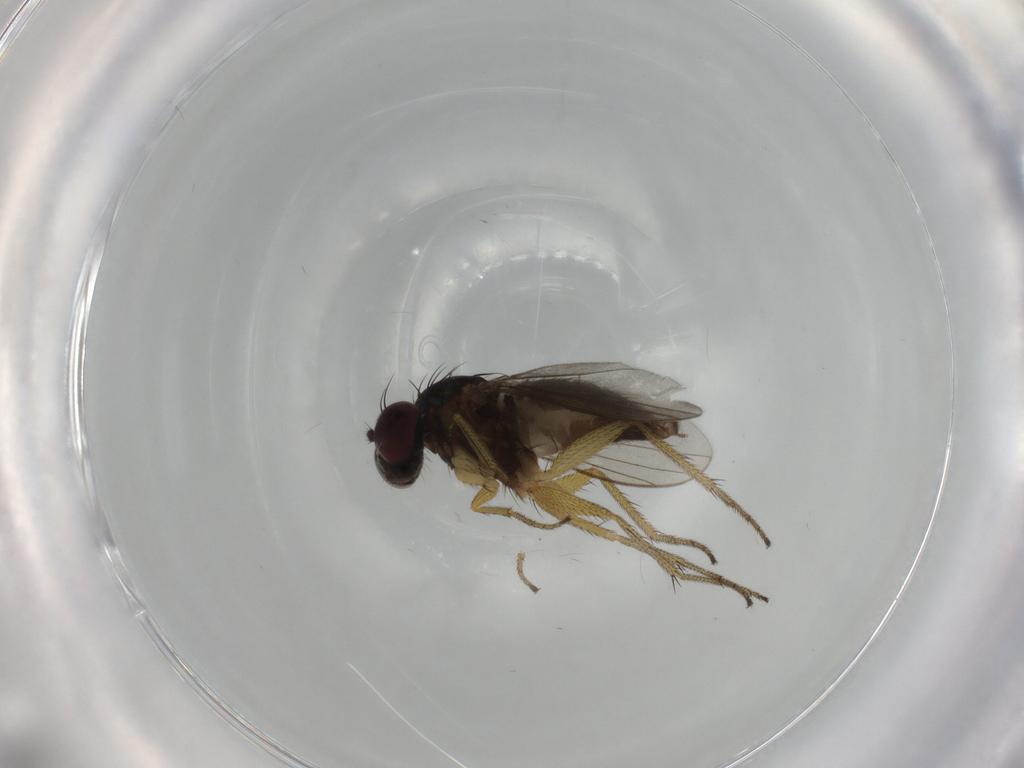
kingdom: Animalia
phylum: Arthropoda
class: Insecta
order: Diptera
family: Dolichopodidae
